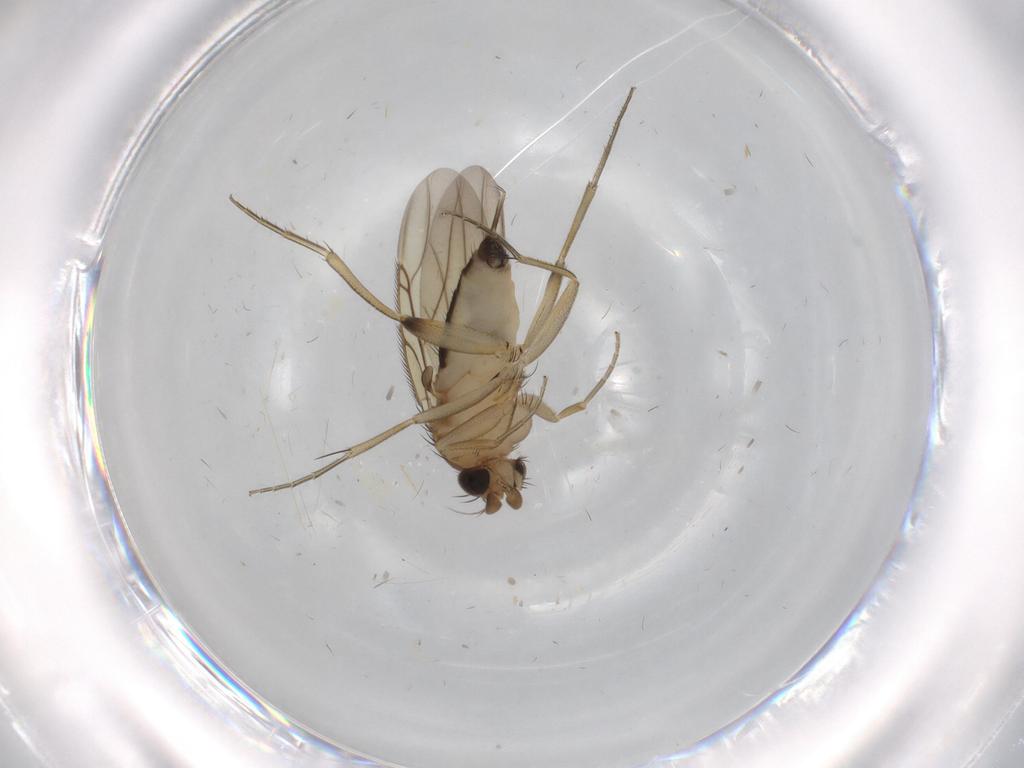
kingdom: Animalia
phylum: Arthropoda
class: Insecta
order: Diptera
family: Phoridae
